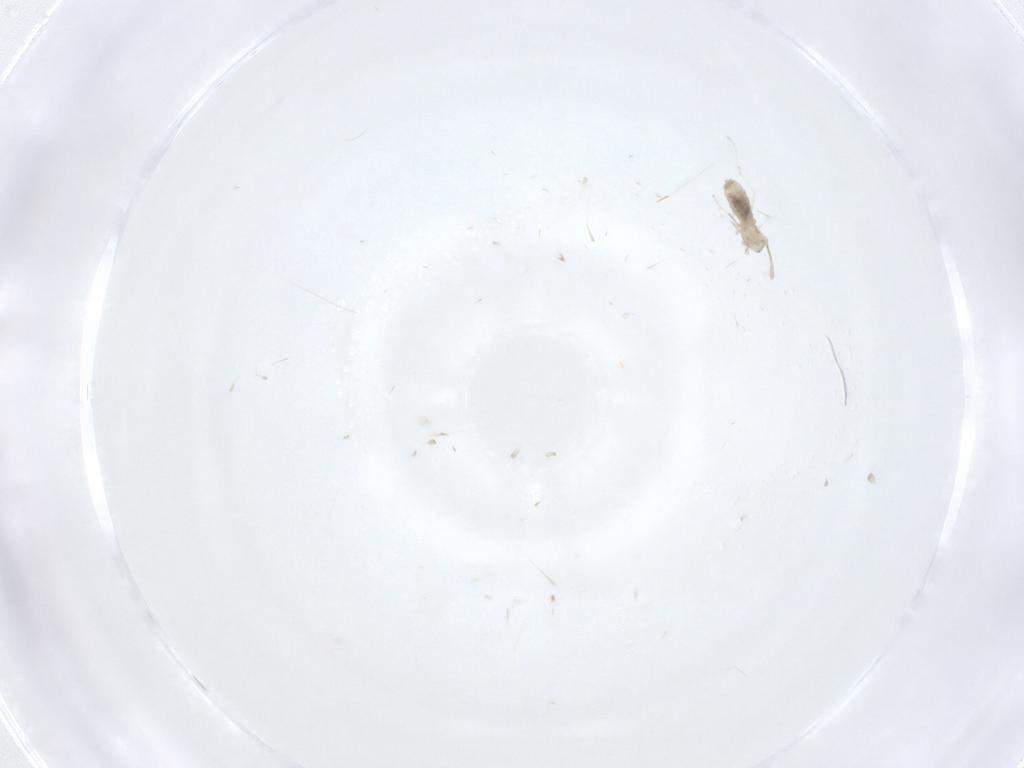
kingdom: Animalia
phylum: Arthropoda
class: Insecta
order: Diptera
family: Cecidomyiidae
